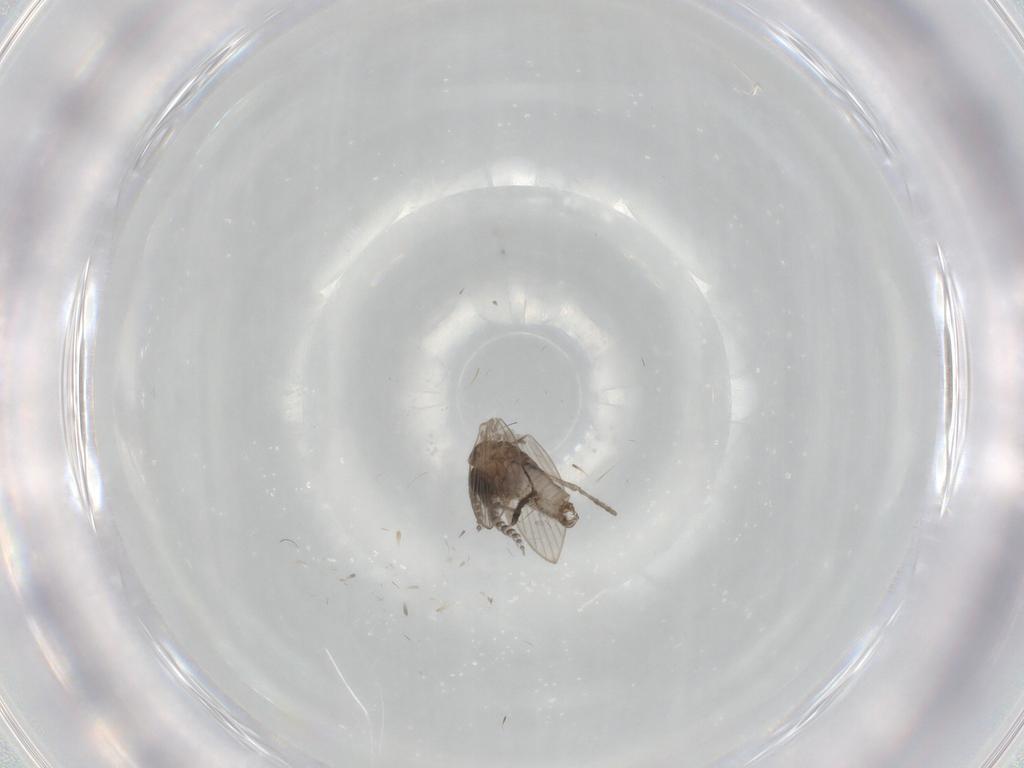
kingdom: Animalia
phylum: Arthropoda
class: Insecta
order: Diptera
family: Psychodidae
